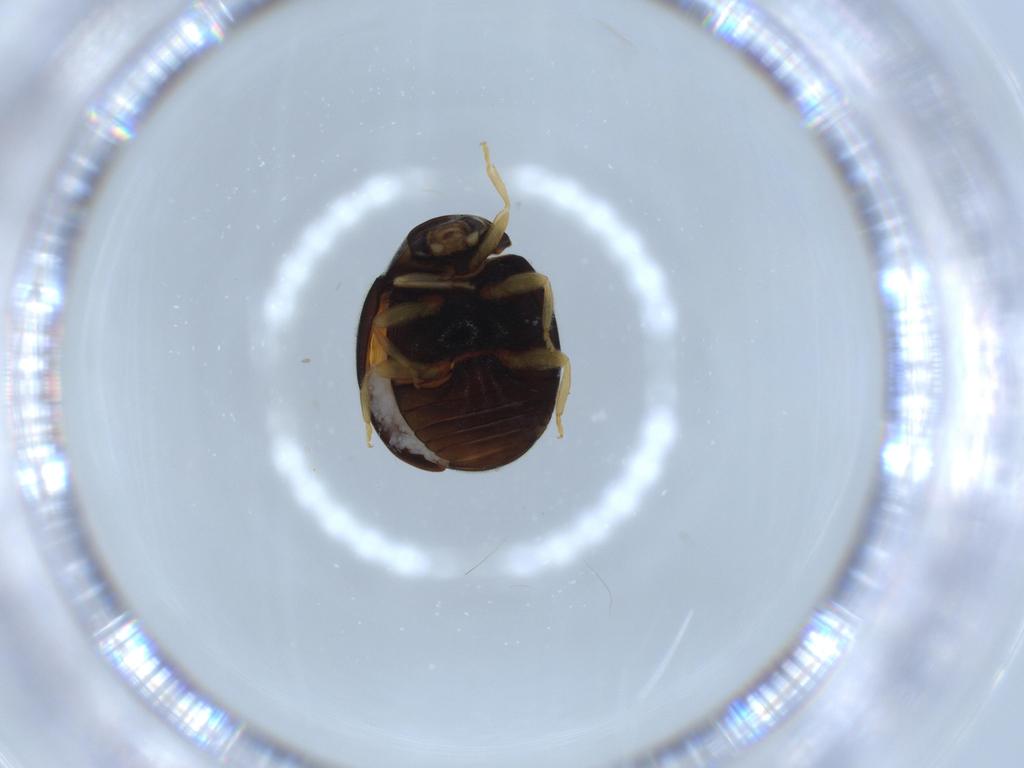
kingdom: Animalia
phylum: Arthropoda
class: Insecta
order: Coleoptera
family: Coccinellidae
